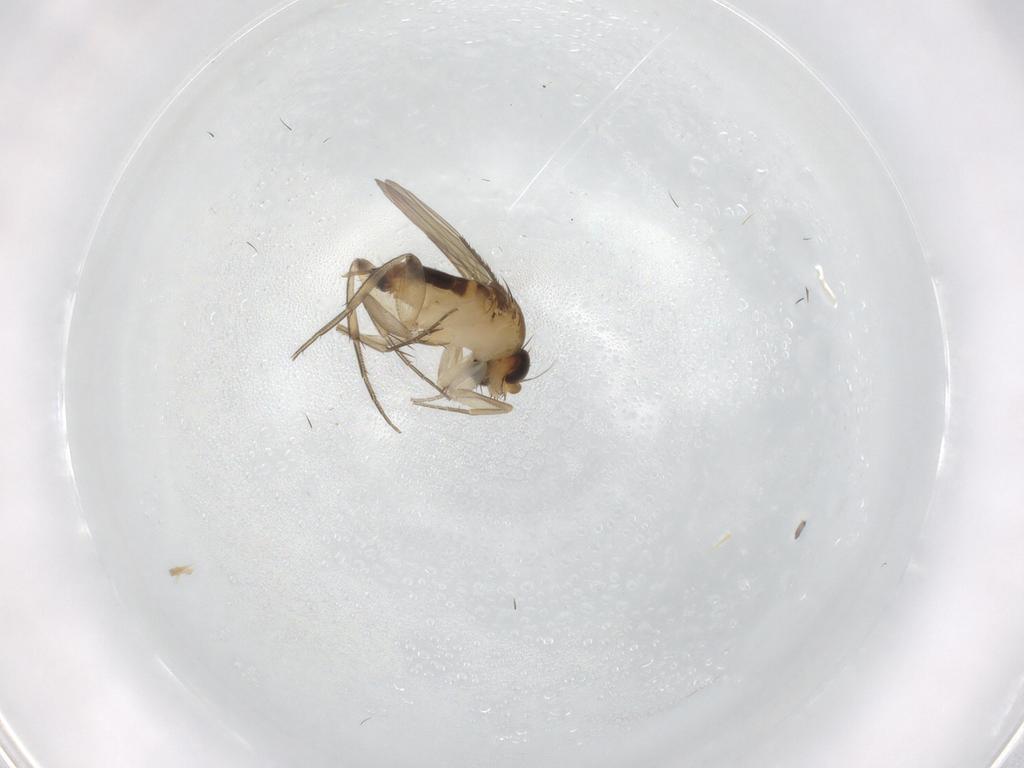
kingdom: Animalia
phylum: Arthropoda
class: Insecta
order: Diptera
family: Phoridae
